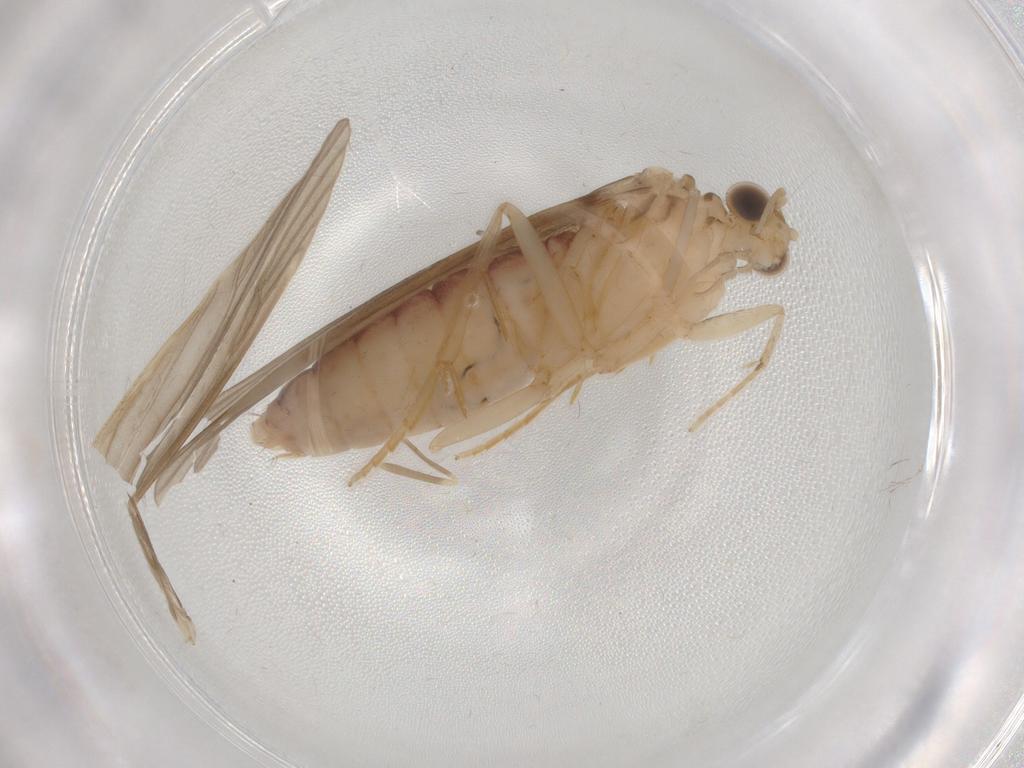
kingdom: Animalia
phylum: Arthropoda
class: Insecta
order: Trichoptera
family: Ecnomidae
